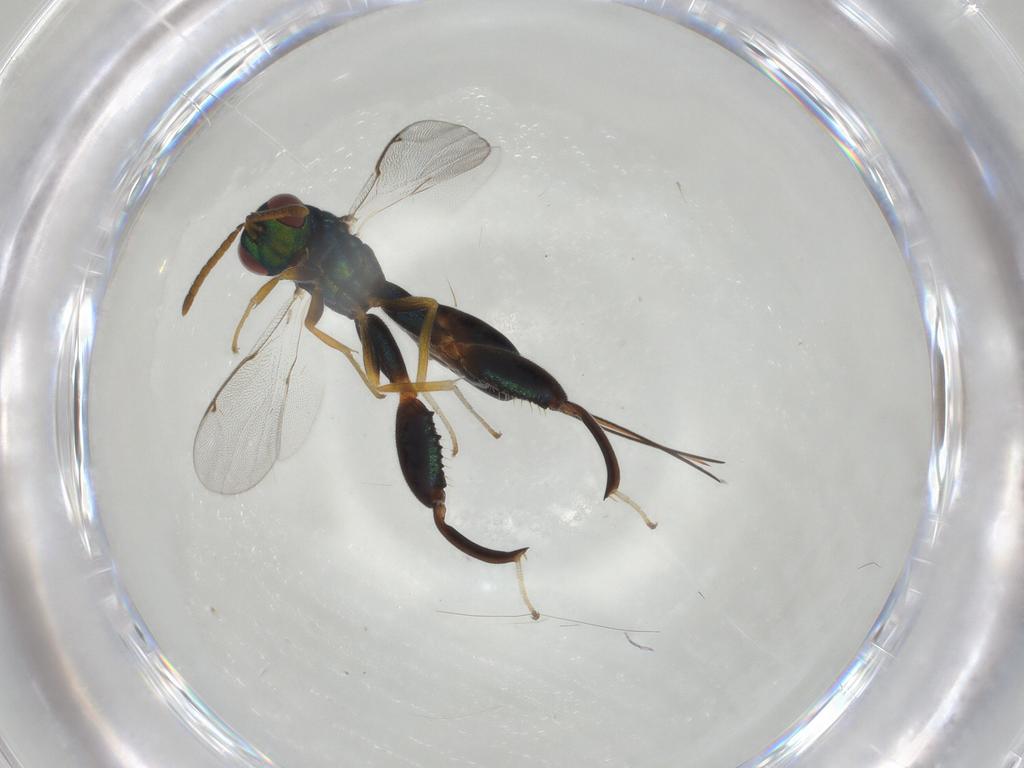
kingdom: Animalia
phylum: Arthropoda
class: Insecta
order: Hymenoptera
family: Torymidae
